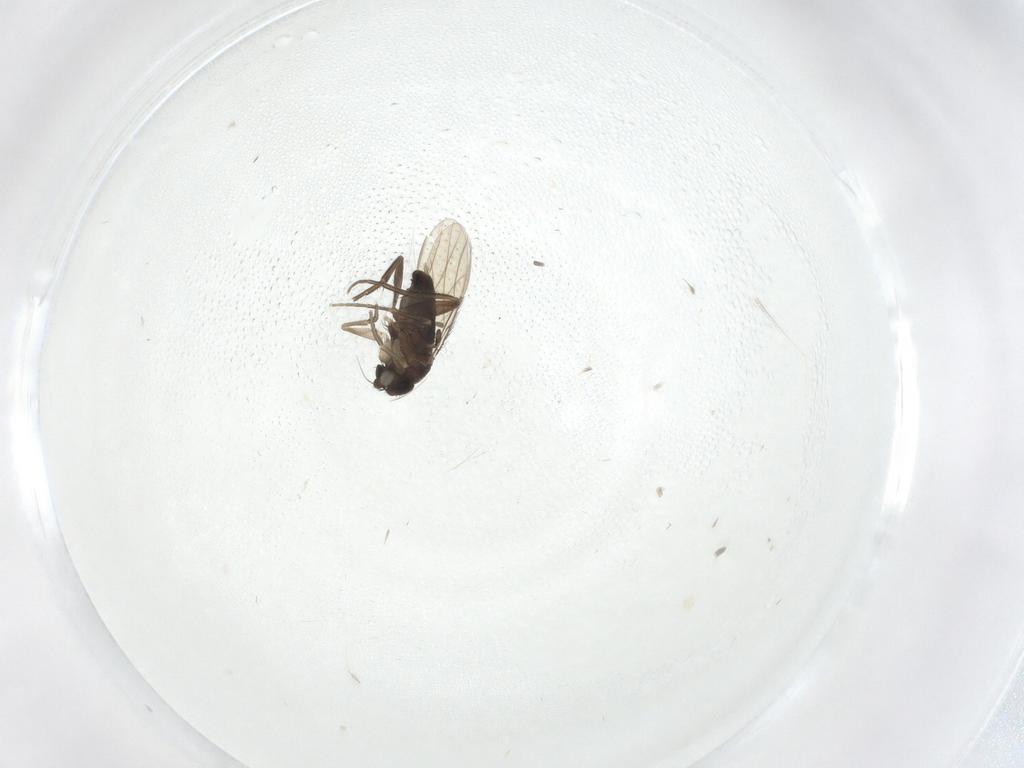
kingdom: Animalia
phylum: Arthropoda
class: Insecta
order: Diptera
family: Phoridae
